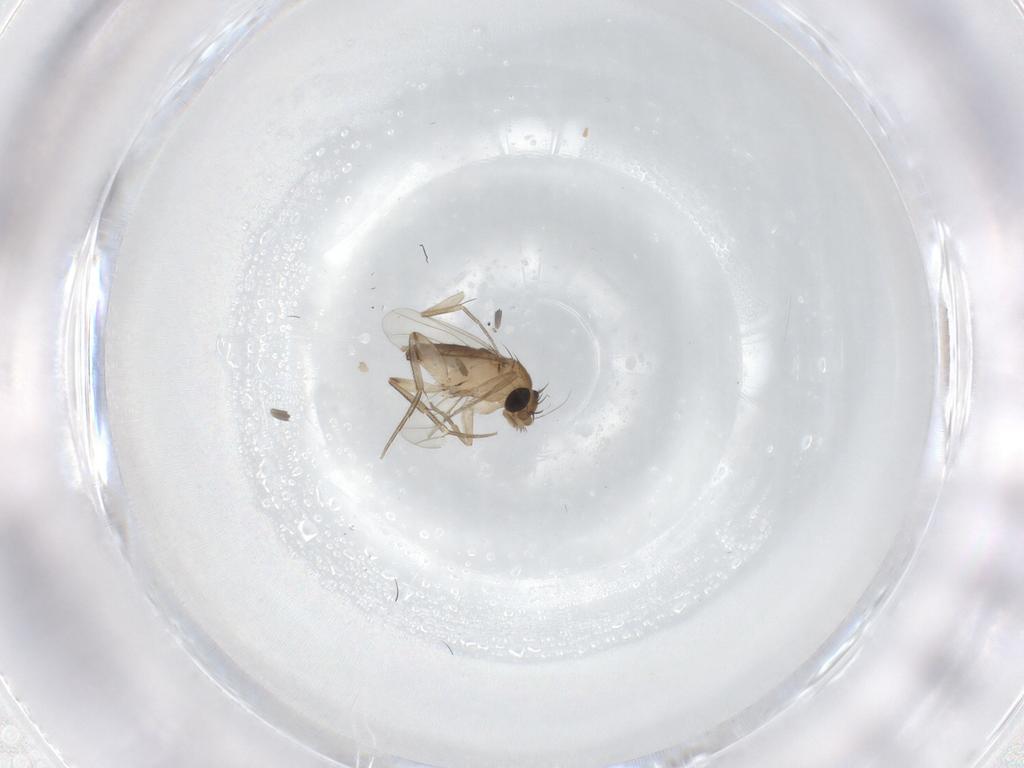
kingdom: Animalia
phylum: Arthropoda
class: Insecta
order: Diptera
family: Phoridae
